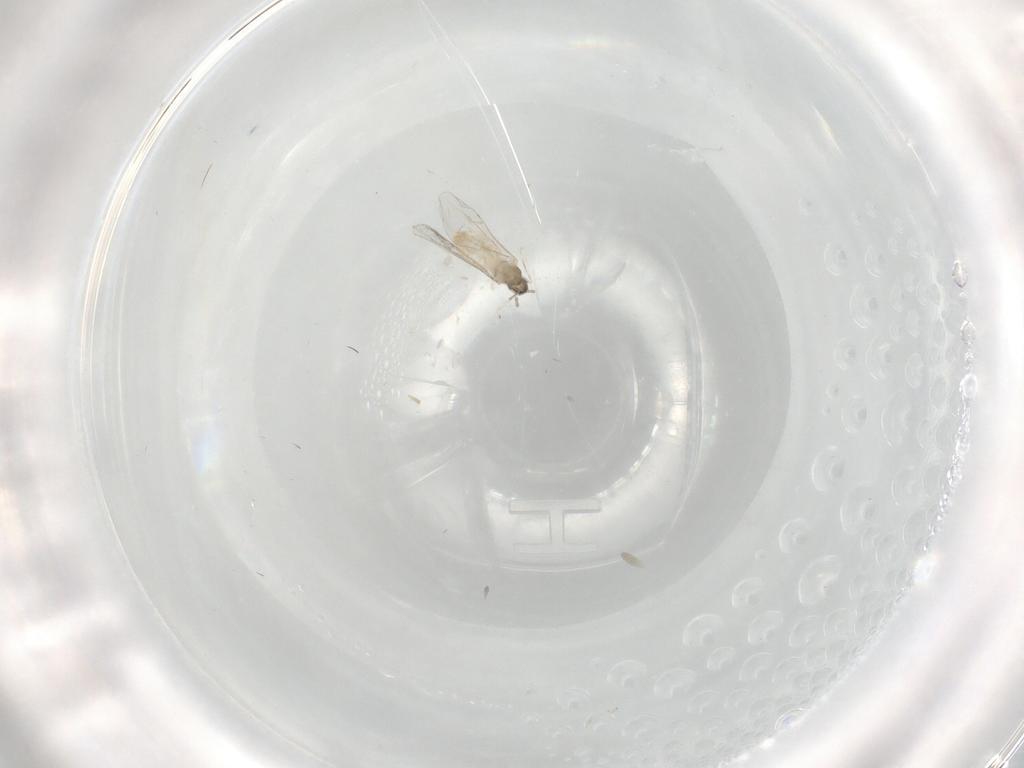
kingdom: Animalia
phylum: Arthropoda
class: Insecta
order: Diptera
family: Cecidomyiidae
